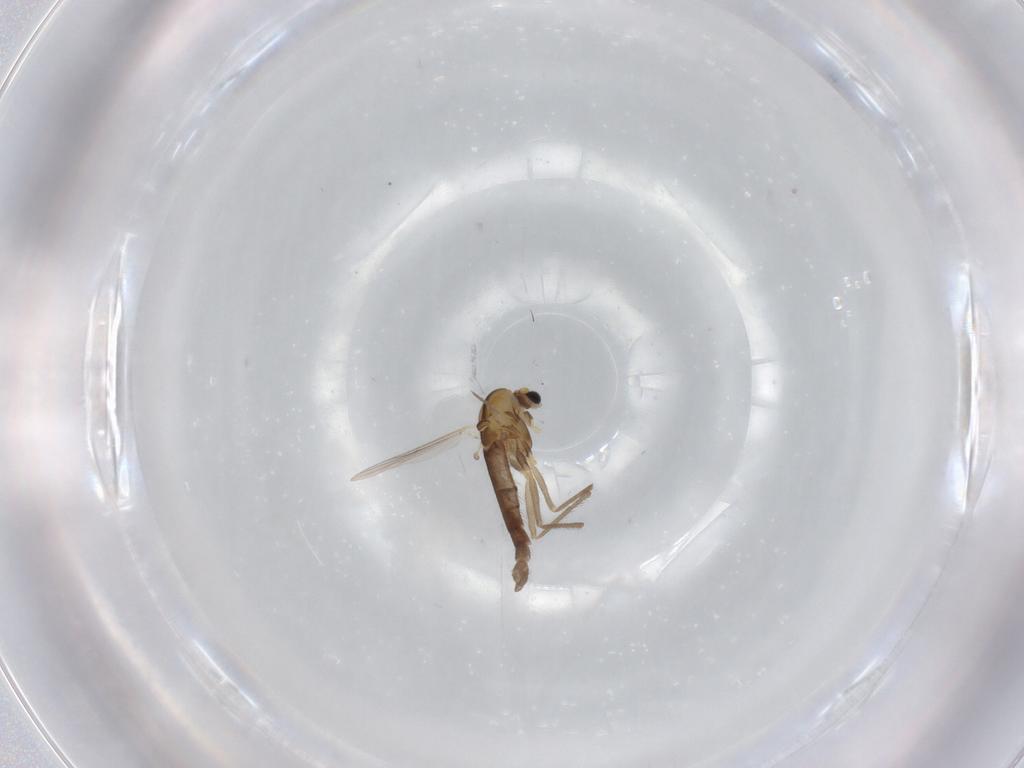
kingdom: Animalia
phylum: Arthropoda
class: Insecta
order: Diptera
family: Chironomidae
